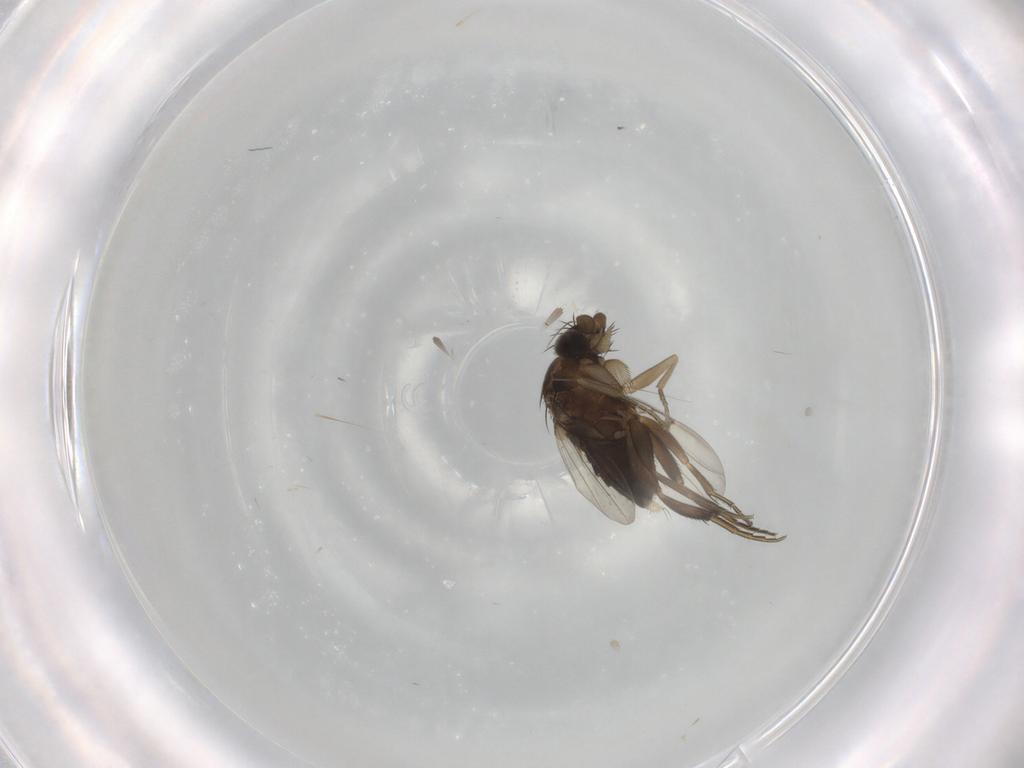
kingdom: Animalia
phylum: Arthropoda
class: Insecta
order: Diptera
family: Phoridae
